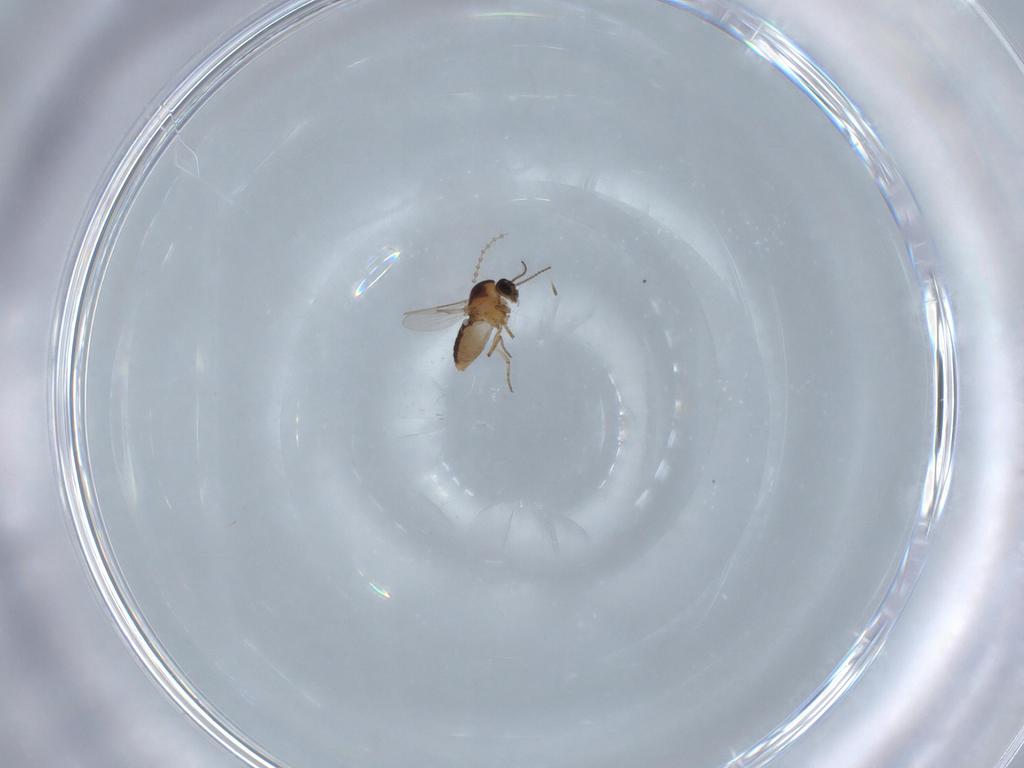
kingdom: Animalia
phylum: Arthropoda
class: Insecta
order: Diptera
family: Ceratopogonidae
